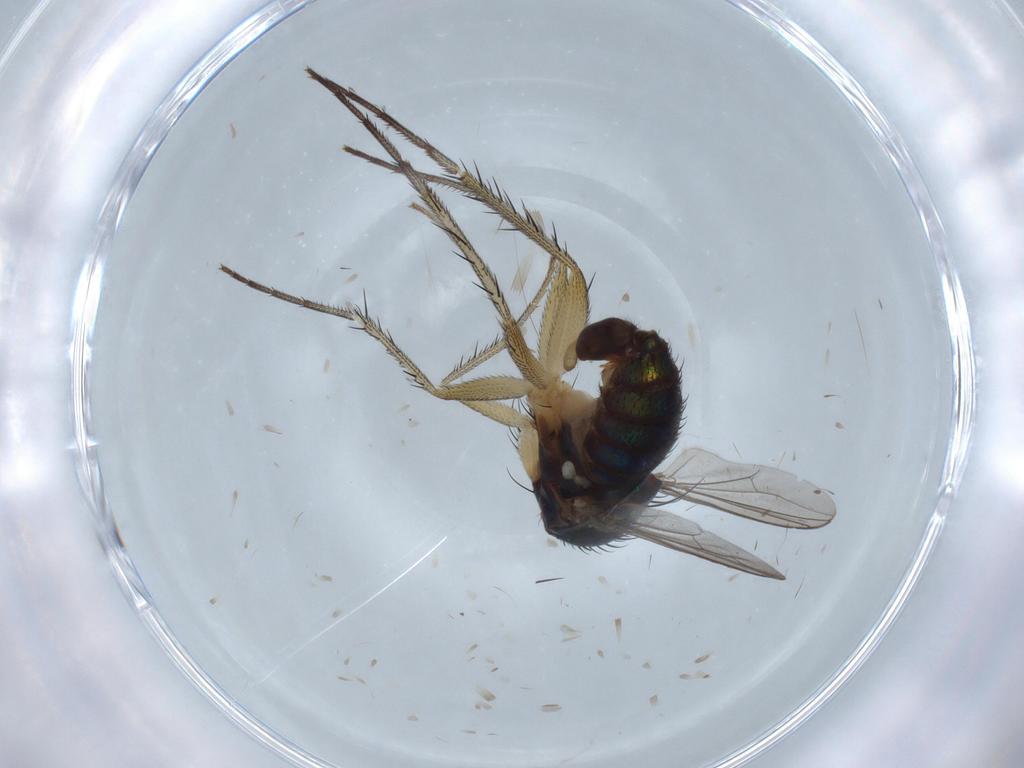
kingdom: Animalia
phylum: Arthropoda
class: Insecta
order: Diptera
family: Dolichopodidae
